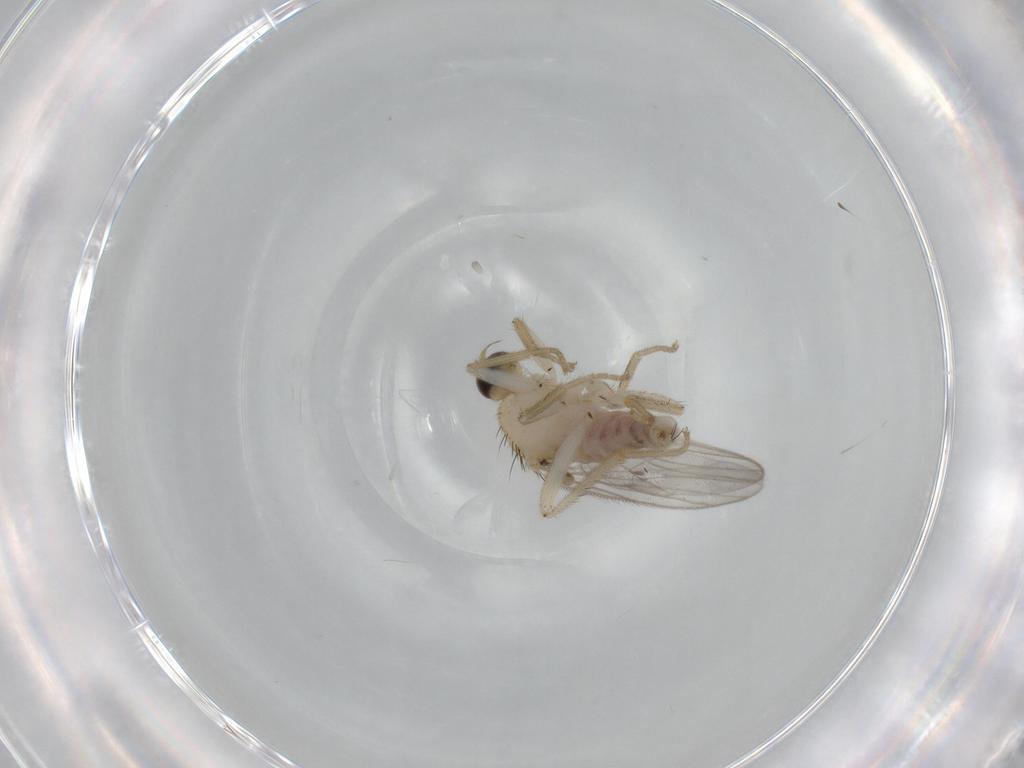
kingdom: Animalia
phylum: Arthropoda
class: Insecta
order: Diptera
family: Hybotidae
